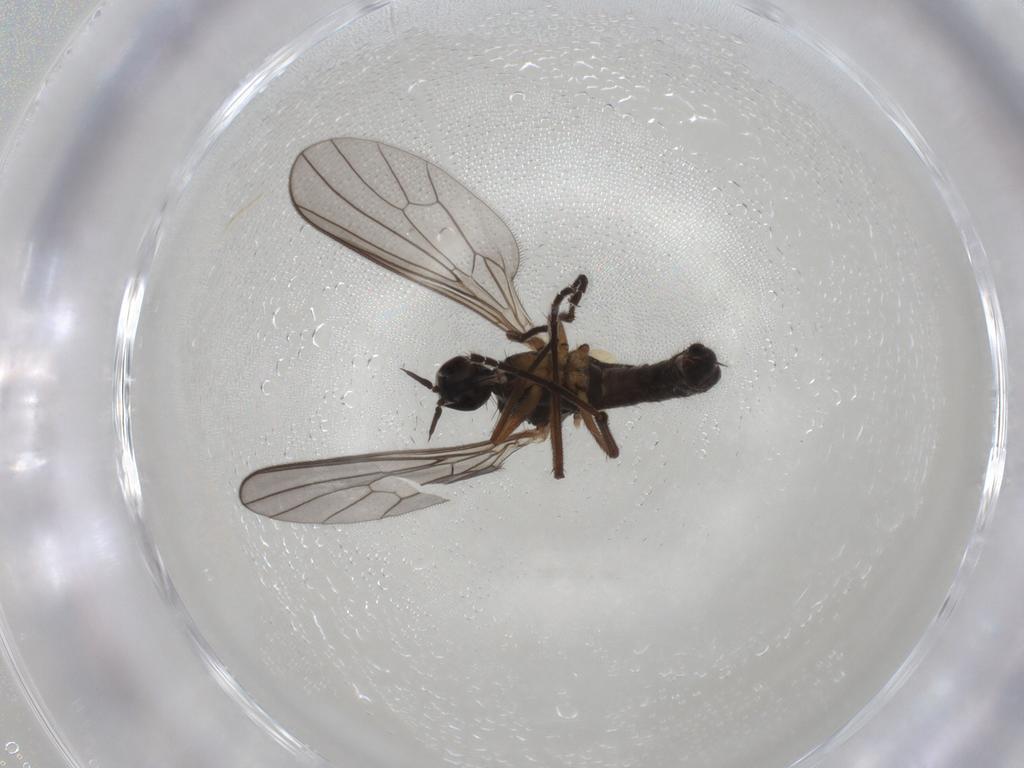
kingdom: Animalia
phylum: Arthropoda
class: Insecta
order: Diptera
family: Empididae
